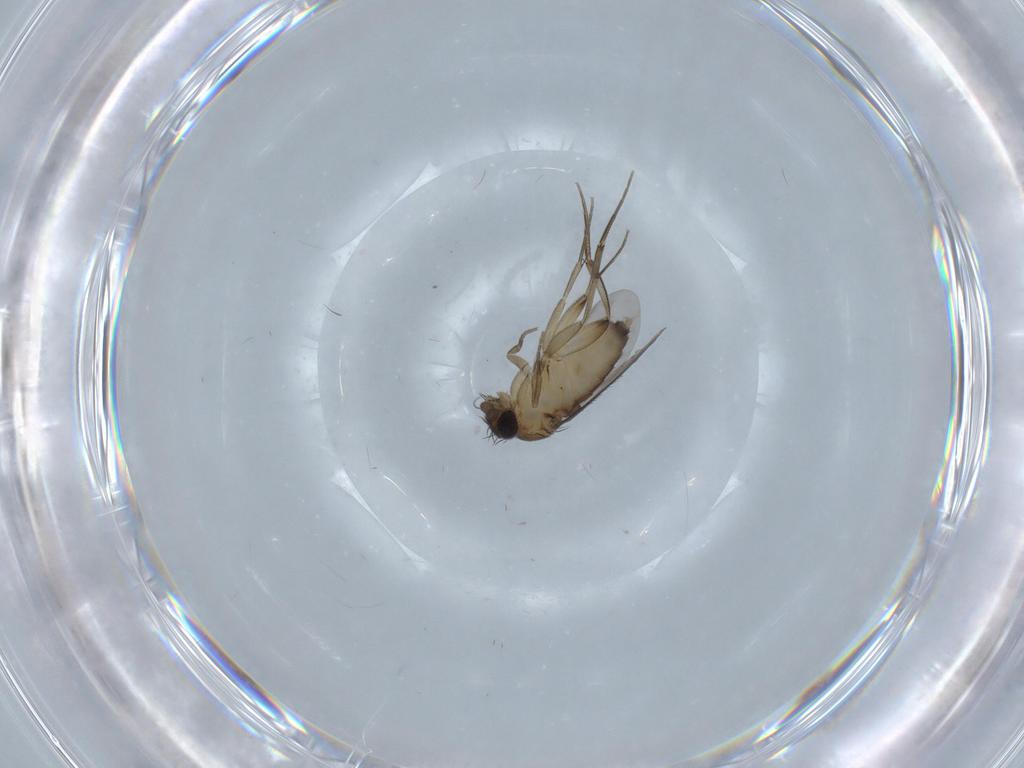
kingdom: Animalia
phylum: Arthropoda
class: Insecta
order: Diptera
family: Phoridae
